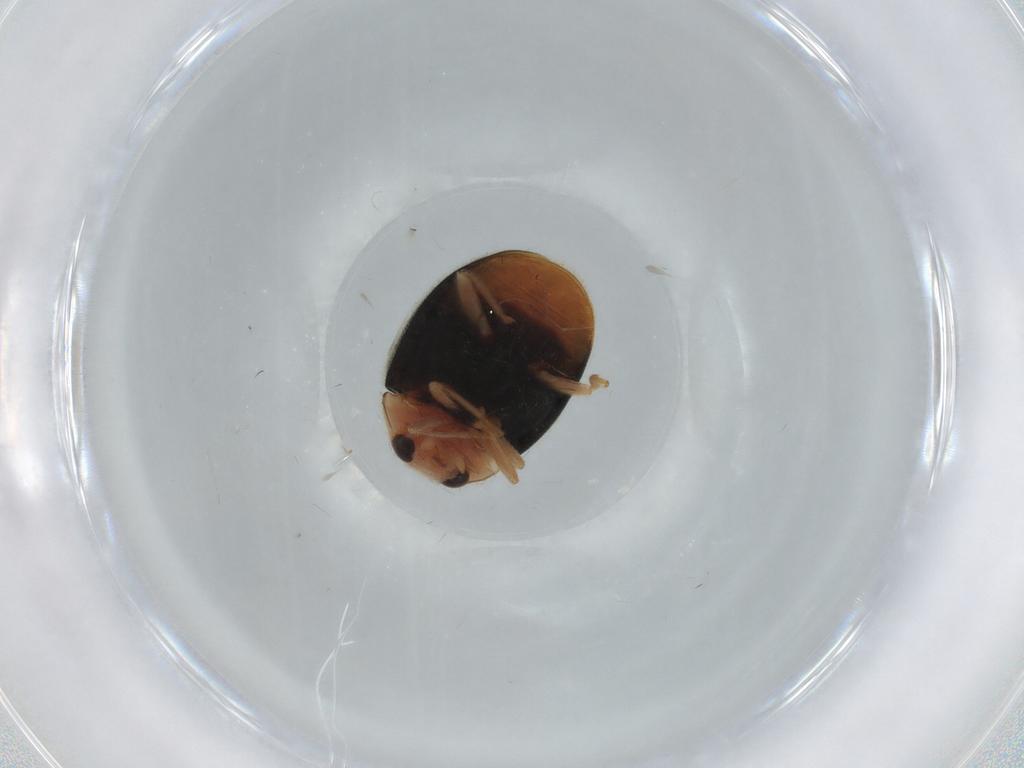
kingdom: Animalia
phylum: Arthropoda
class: Insecta
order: Coleoptera
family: Coccinellidae
